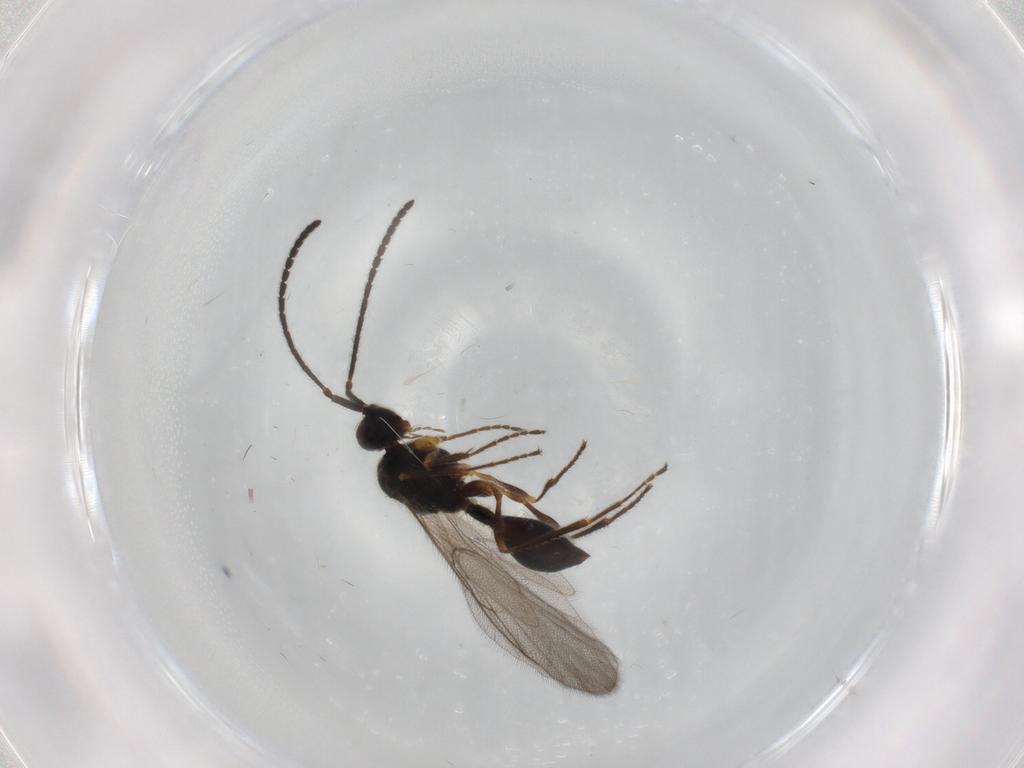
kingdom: Animalia
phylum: Arthropoda
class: Insecta
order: Hymenoptera
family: Diapriidae
